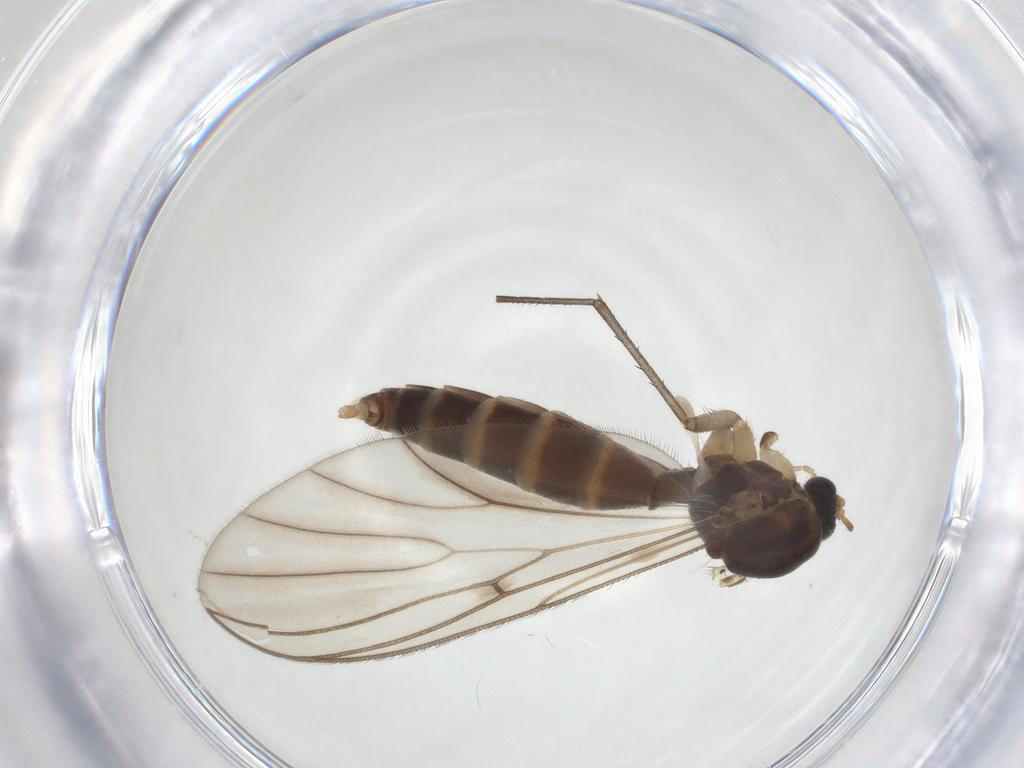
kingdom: Animalia
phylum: Arthropoda
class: Insecta
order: Diptera
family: Mycetophilidae
